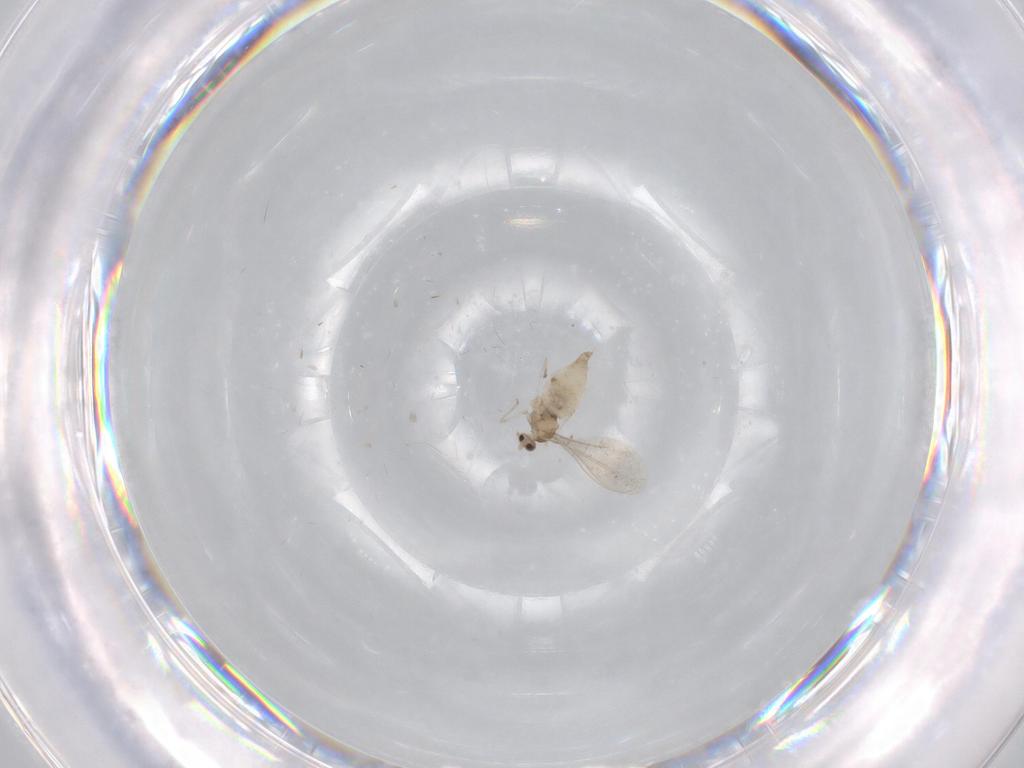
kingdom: Animalia
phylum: Arthropoda
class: Insecta
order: Diptera
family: Cecidomyiidae
